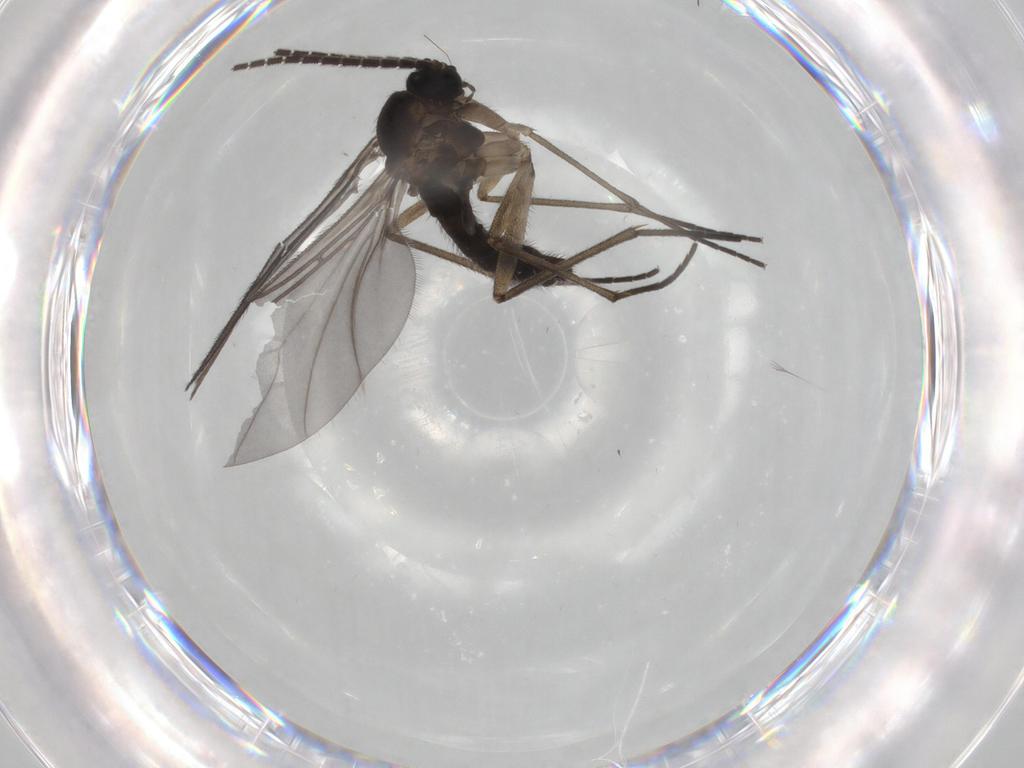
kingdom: Animalia
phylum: Arthropoda
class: Insecta
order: Diptera
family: Sciaridae
